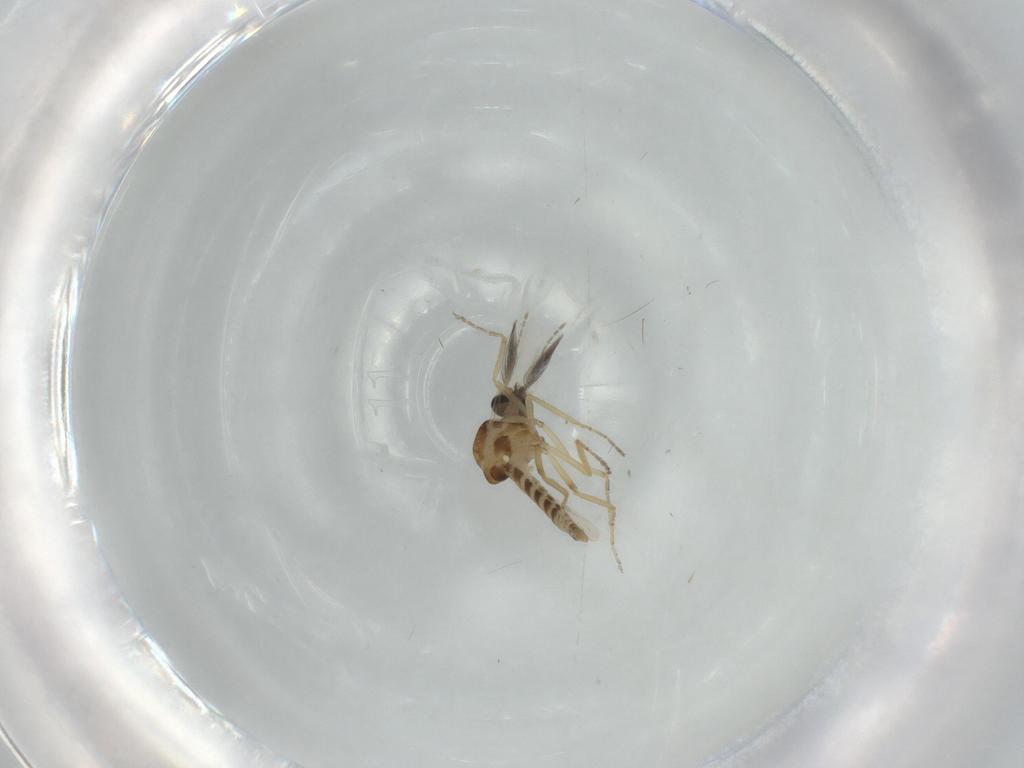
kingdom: Animalia
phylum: Arthropoda
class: Insecta
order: Diptera
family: Ceratopogonidae
